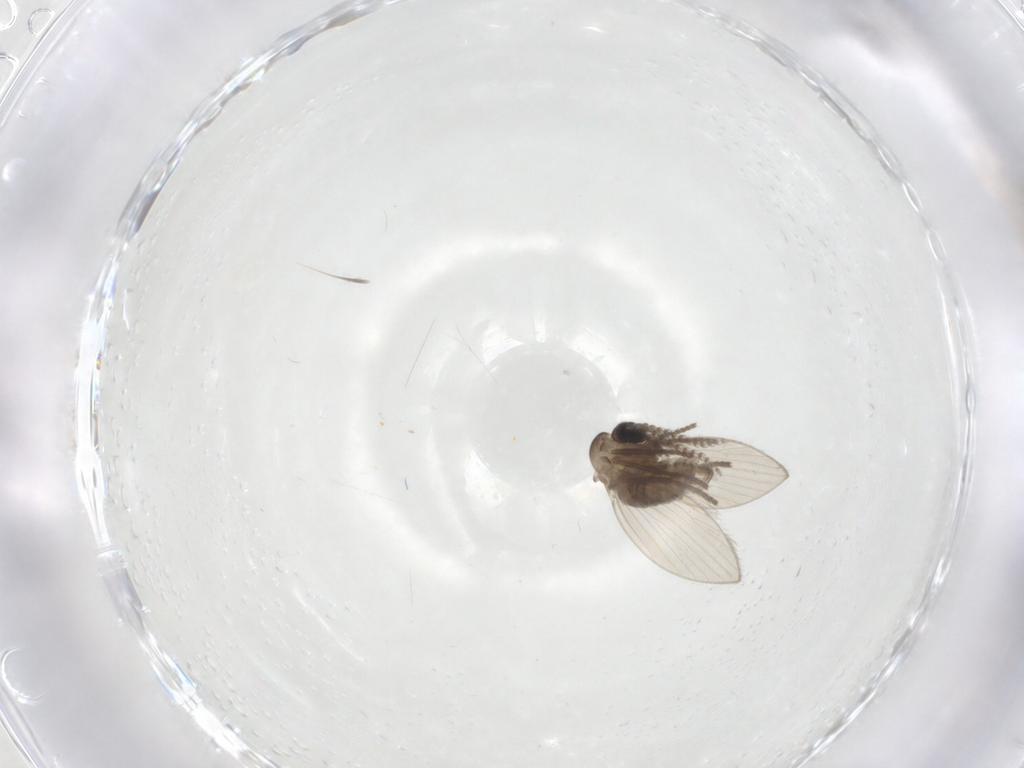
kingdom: Animalia
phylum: Arthropoda
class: Insecta
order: Diptera
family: Psychodidae
